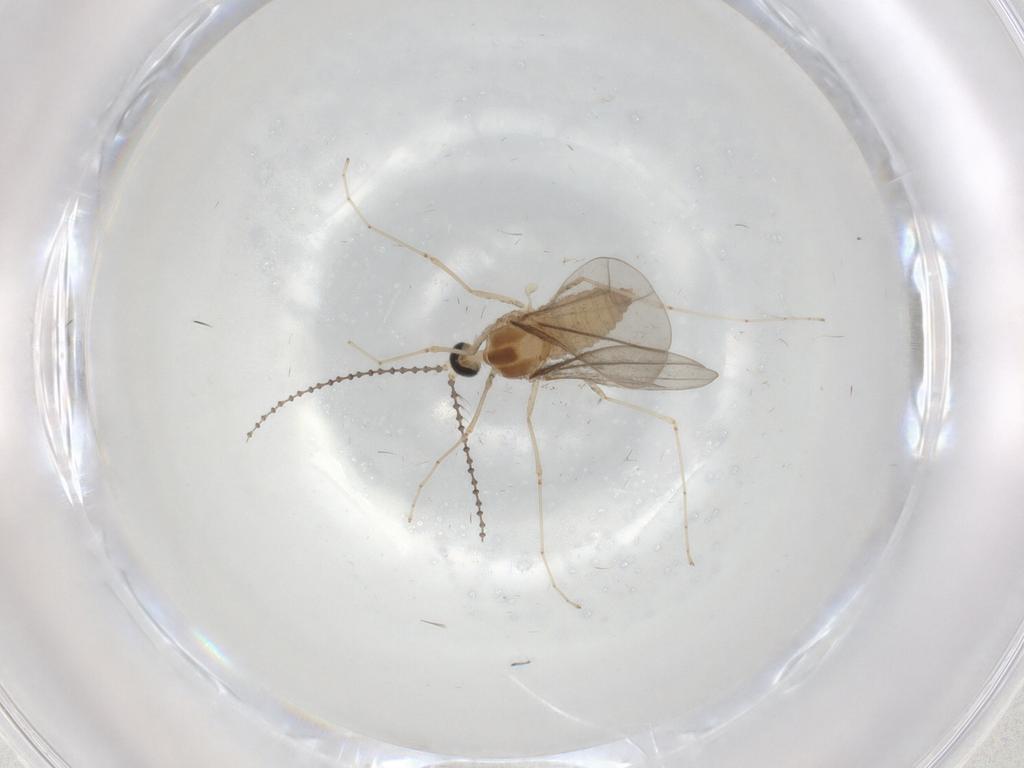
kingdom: Animalia
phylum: Arthropoda
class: Insecta
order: Diptera
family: Cecidomyiidae
